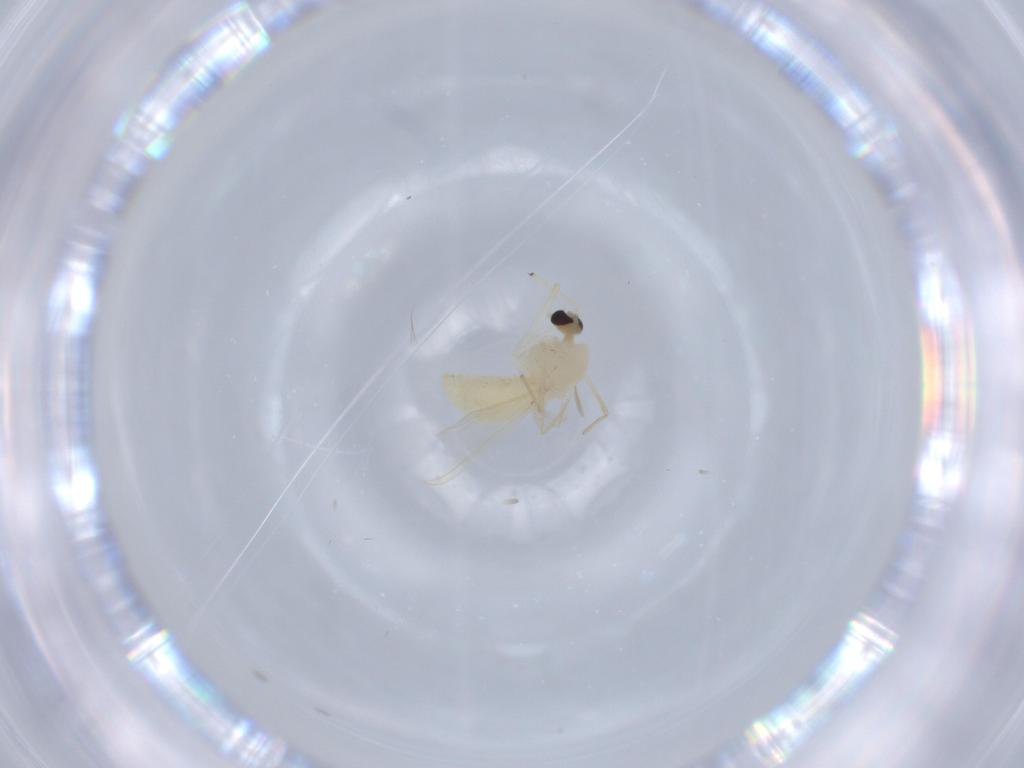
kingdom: Animalia
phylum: Arthropoda
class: Insecta
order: Diptera
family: Chironomidae
